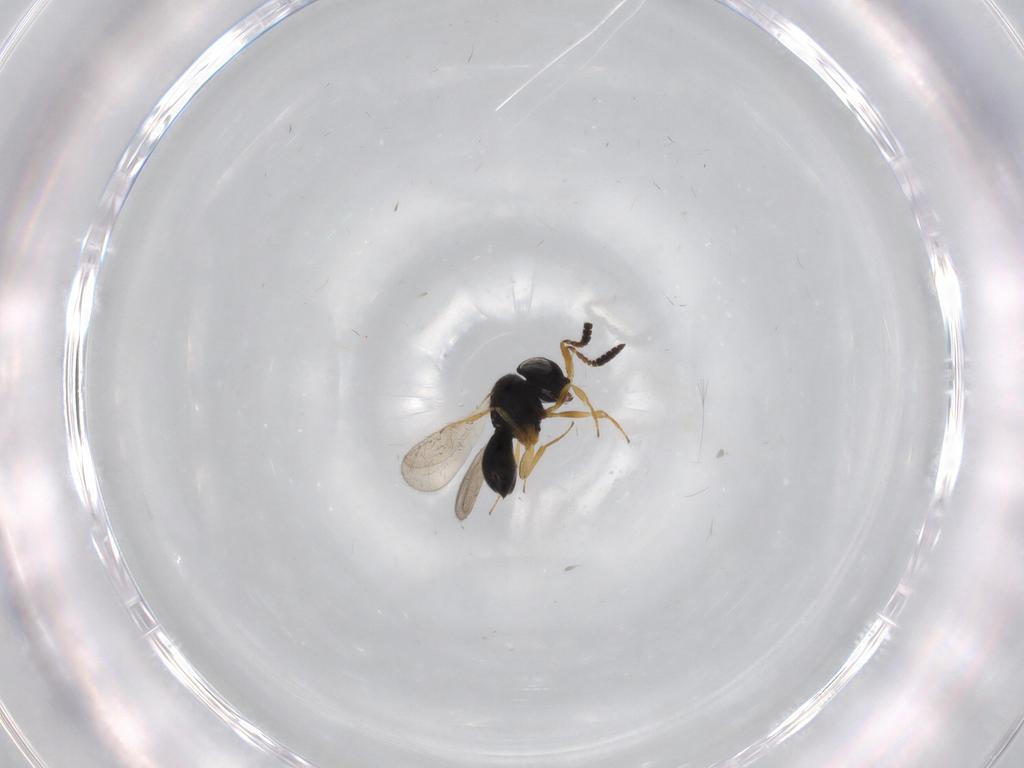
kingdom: Animalia
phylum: Arthropoda
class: Insecta
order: Hymenoptera
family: Scelionidae
